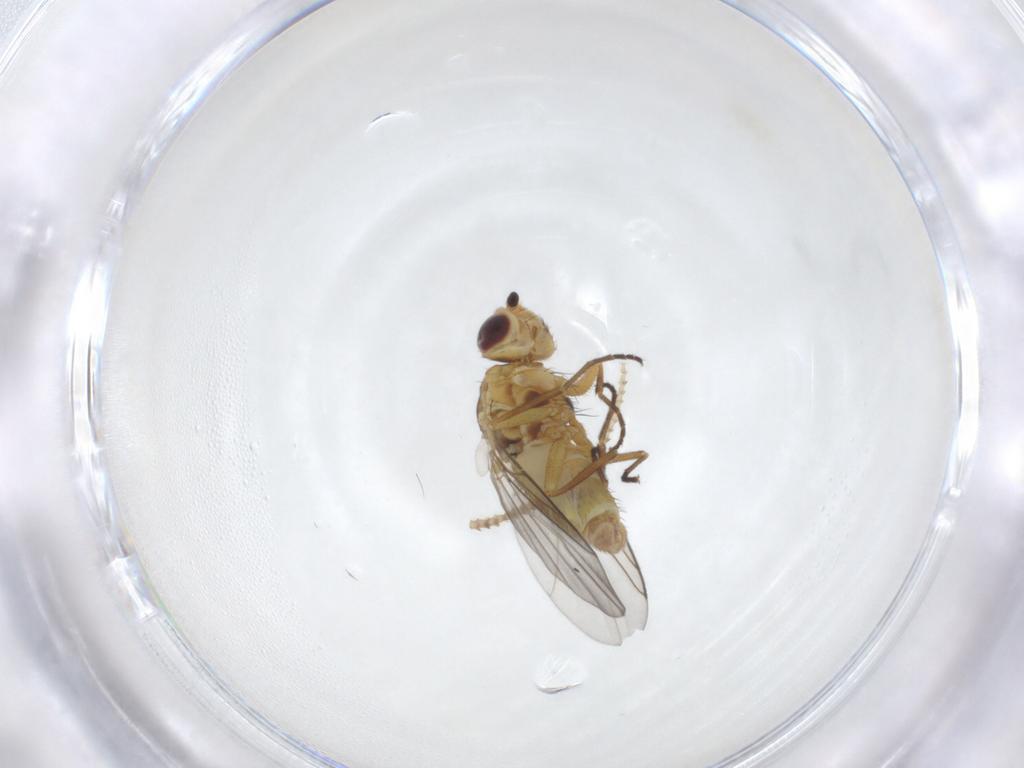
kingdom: Animalia
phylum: Arthropoda
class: Insecta
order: Diptera
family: Agromyzidae
